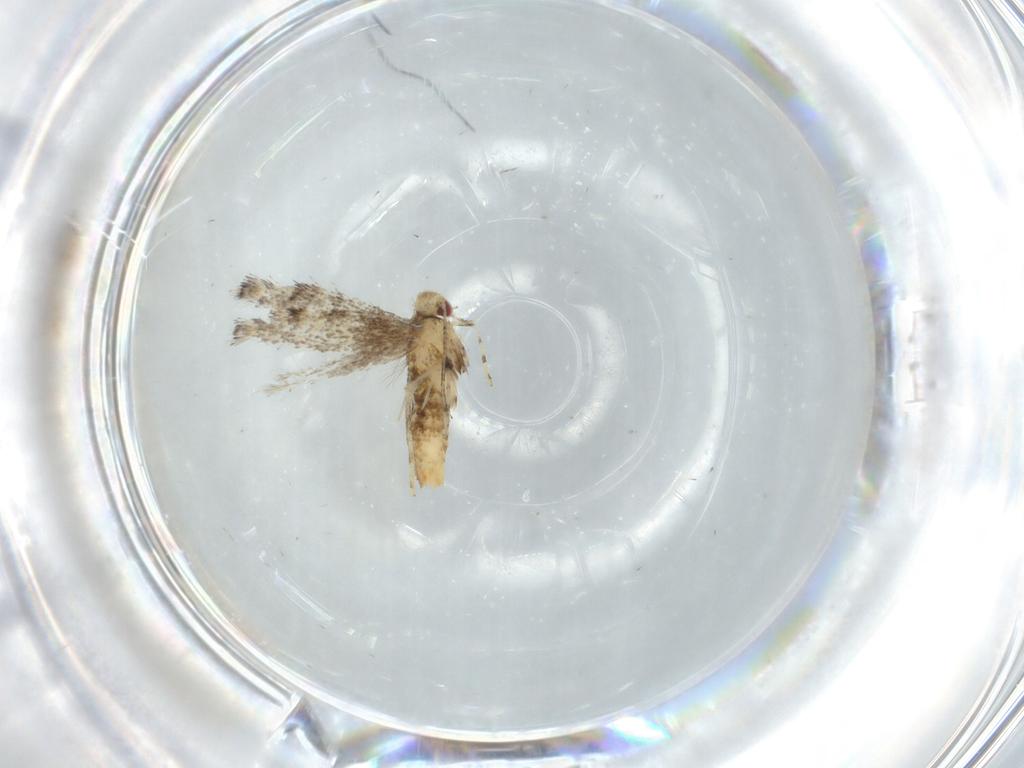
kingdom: Animalia
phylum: Arthropoda
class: Insecta
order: Lepidoptera
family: Gracillariidae
